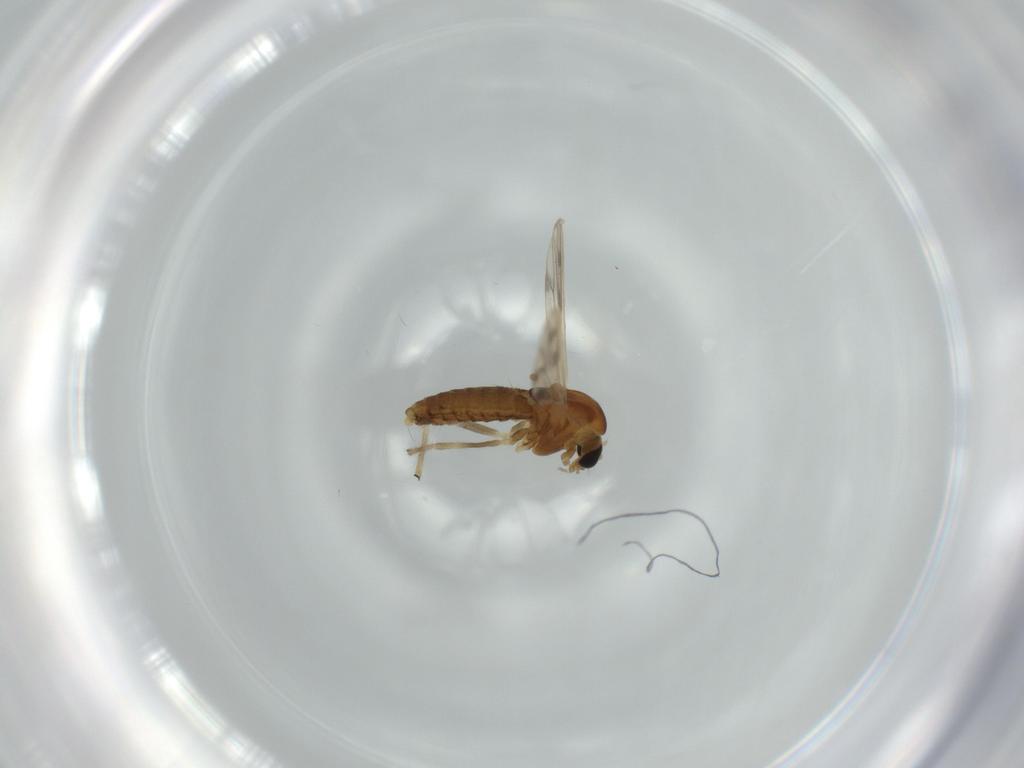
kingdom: Animalia
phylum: Arthropoda
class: Insecta
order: Diptera
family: Chironomidae
